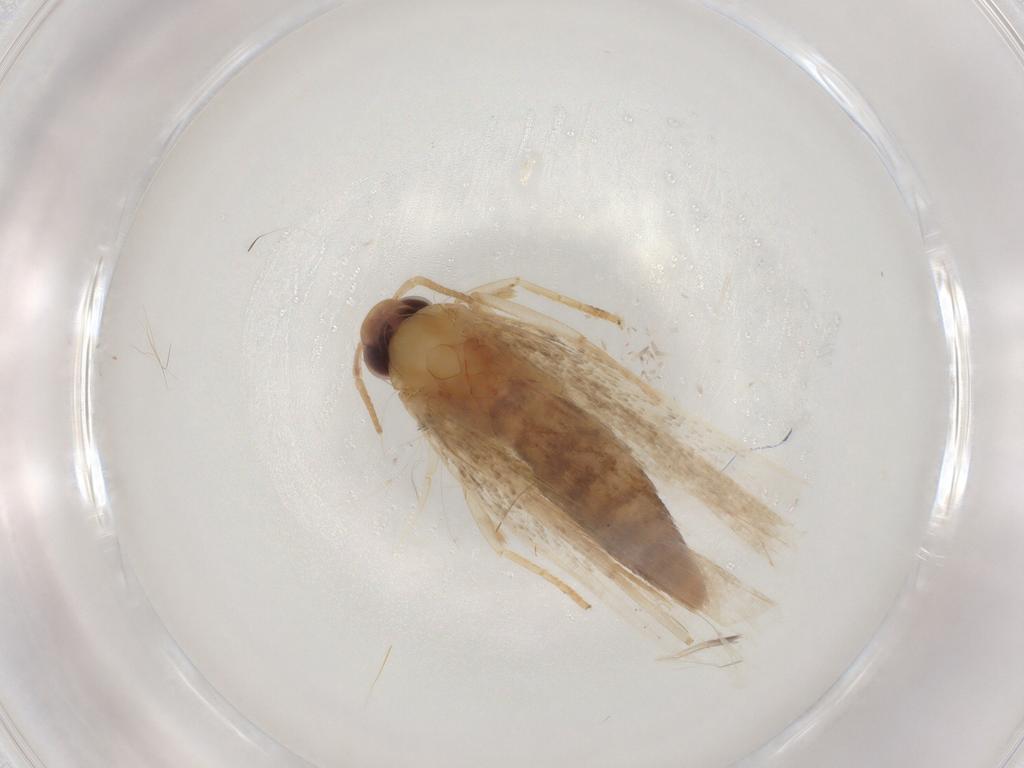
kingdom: Animalia
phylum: Arthropoda
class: Insecta
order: Lepidoptera
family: Gelechiidae
